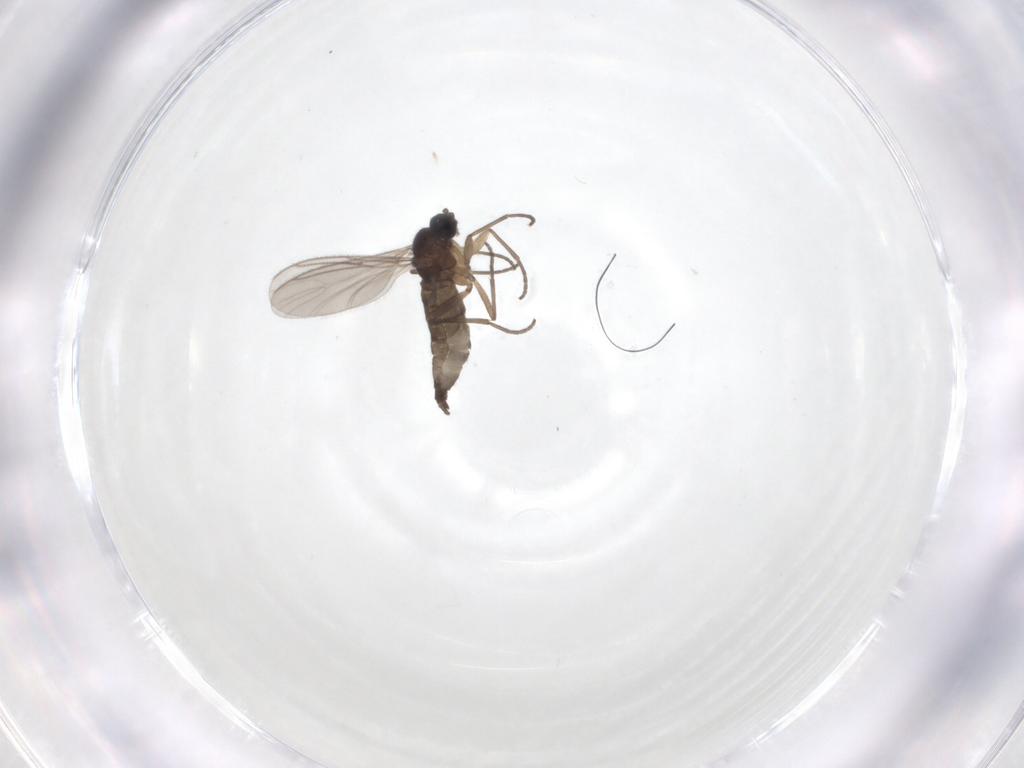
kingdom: Animalia
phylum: Arthropoda
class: Insecta
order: Diptera
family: Sciaridae
